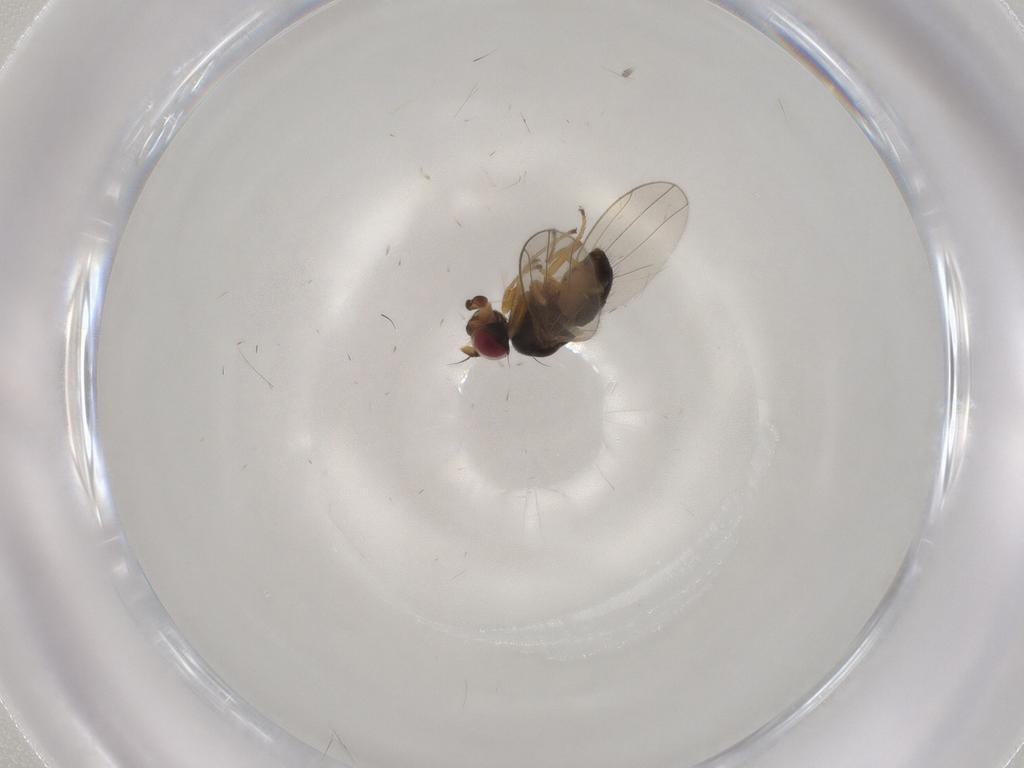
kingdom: Animalia
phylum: Arthropoda
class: Insecta
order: Diptera
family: Ephydridae
